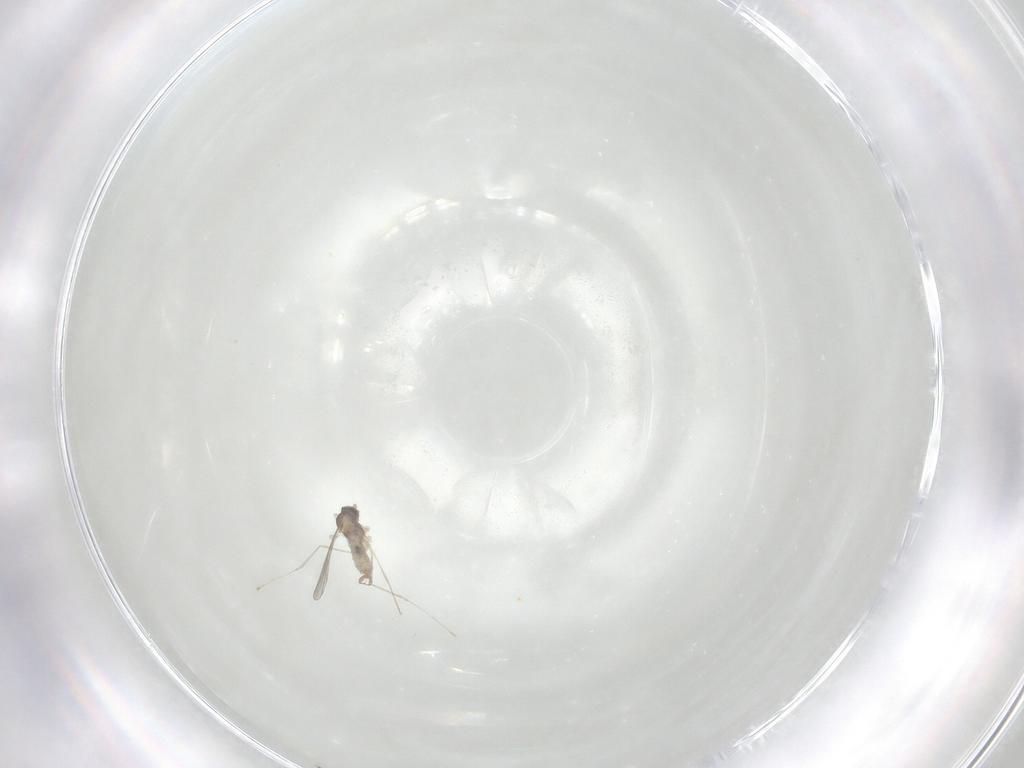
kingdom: Animalia
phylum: Arthropoda
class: Insecta
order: Diptera
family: Cecidomyiidae
